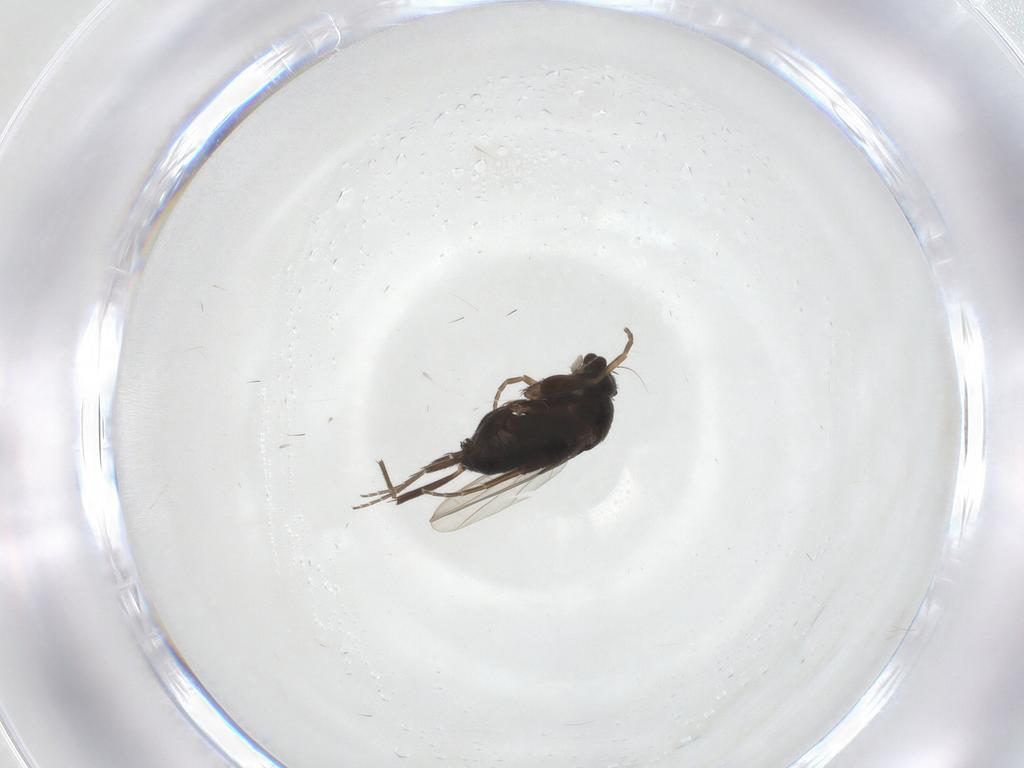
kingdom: Animalia
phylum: Arthropoda
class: Insecta
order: Diptera
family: Phoridae
